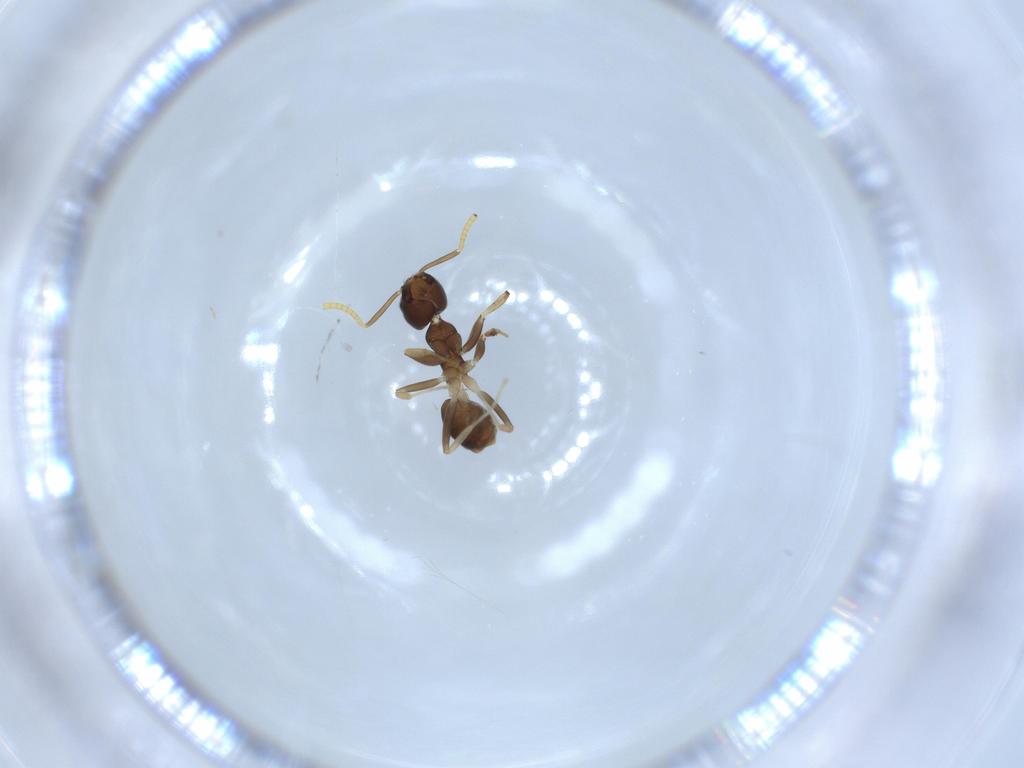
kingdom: Animalia
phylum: Arthropoda
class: Insecta
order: Hymenoptera
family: Formicidae
